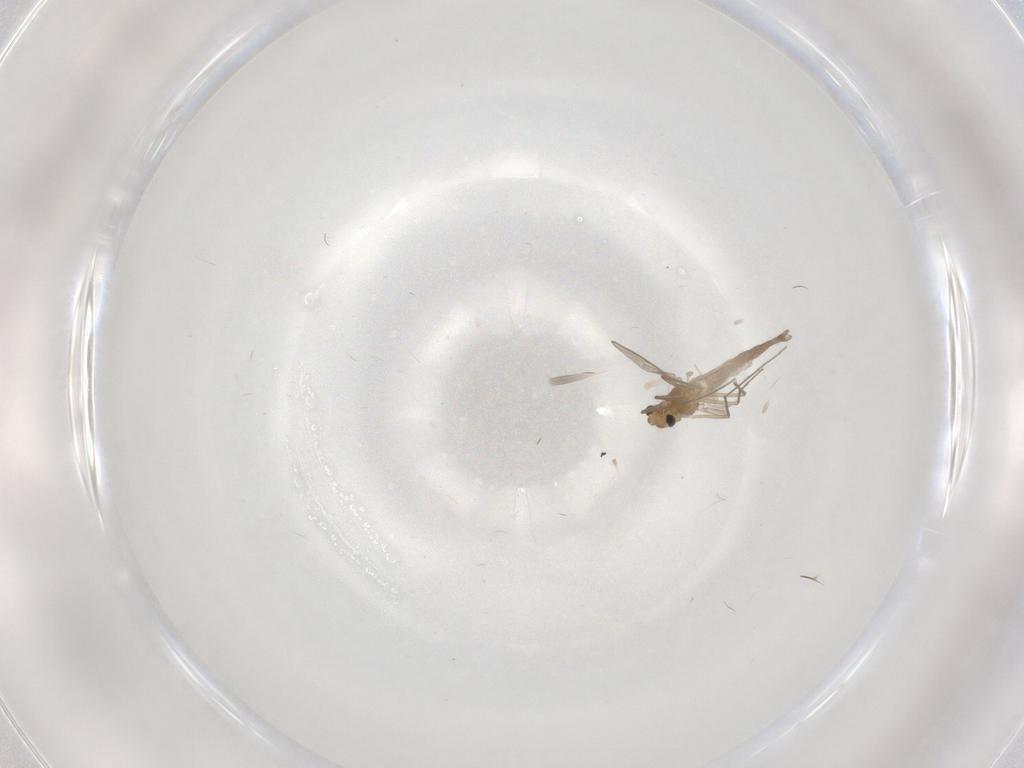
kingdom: Animalia
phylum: Arthropoda
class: Insecta
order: Diptera
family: Chironomidae
